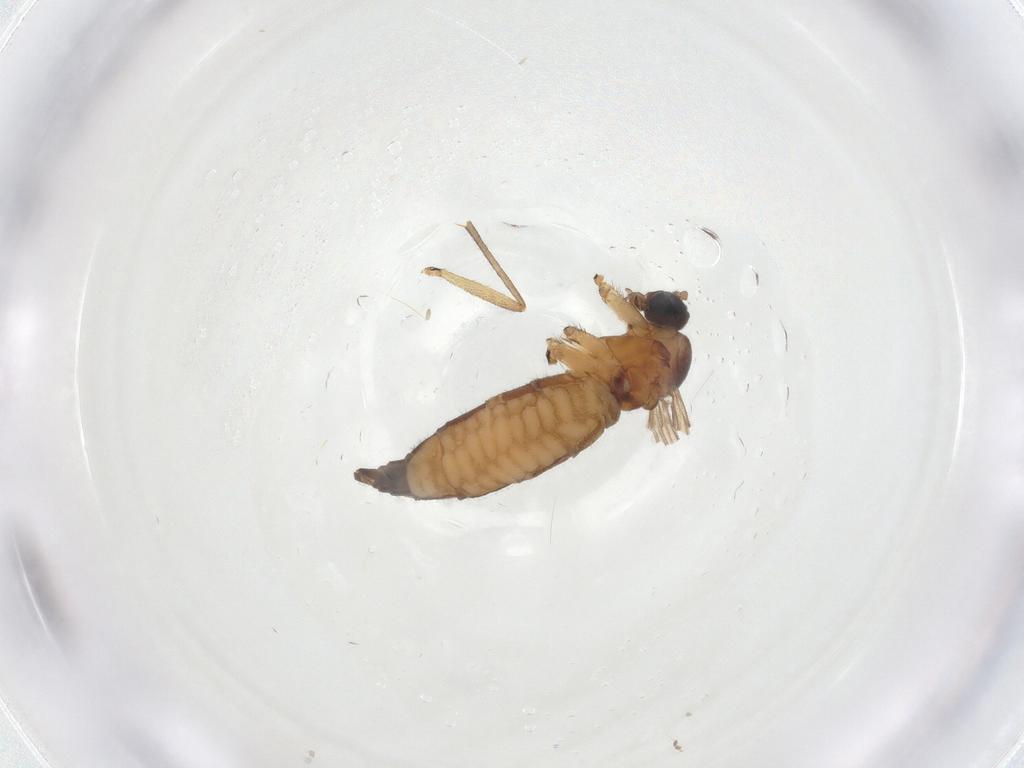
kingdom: Animalia
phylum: Arthropoda
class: Insecta
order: Diptera
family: Sciaridae
